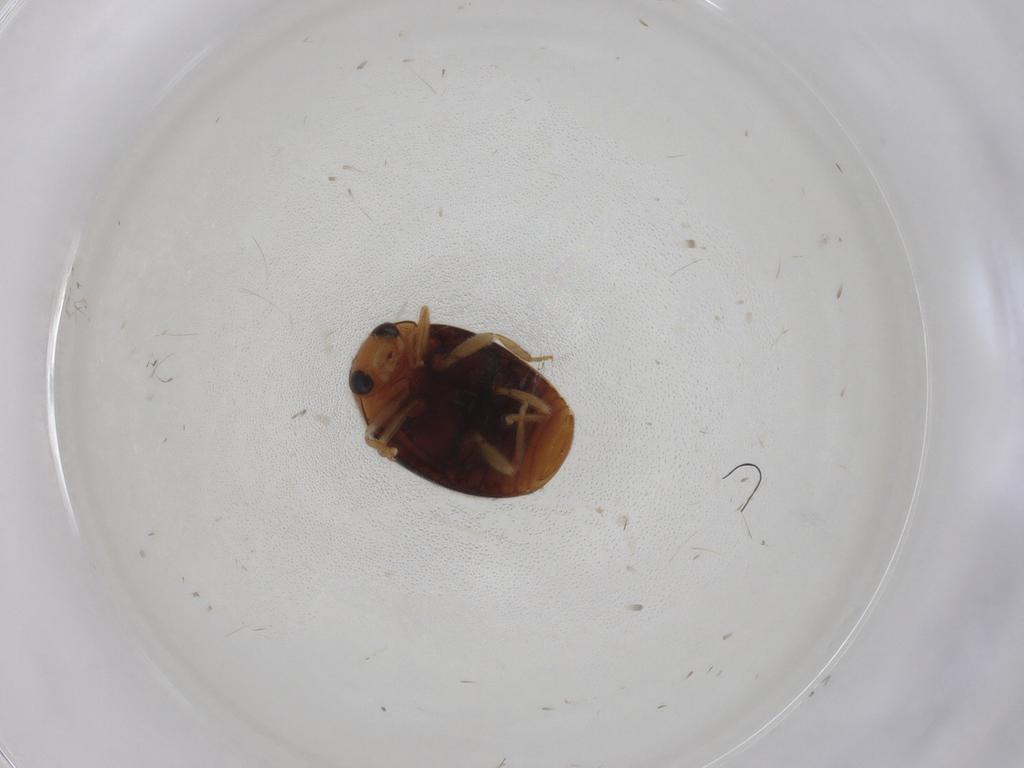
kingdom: Animalia
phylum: Arthropoda
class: Insecta
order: Coleoptera
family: Coccinellidae
